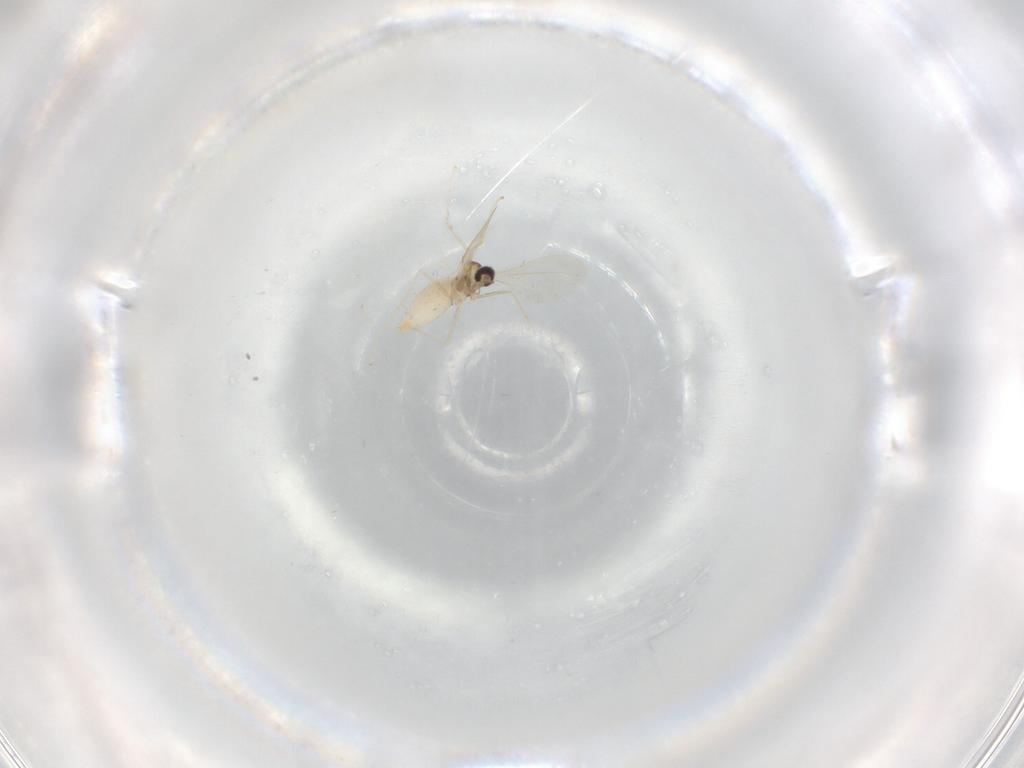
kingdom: Animalia
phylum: Arthropoda
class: Insecta
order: Diptera
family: Cecidomyiidae
